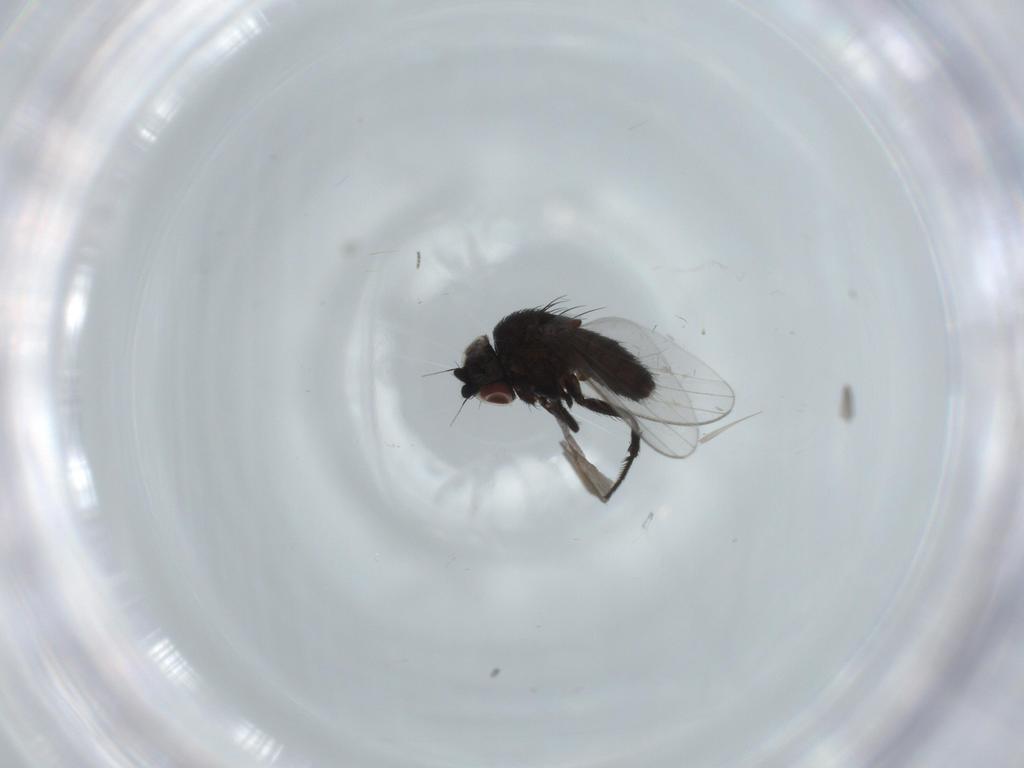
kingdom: Animalia
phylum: Arthropoda
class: Insecta
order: Diptera
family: Milichiidae
